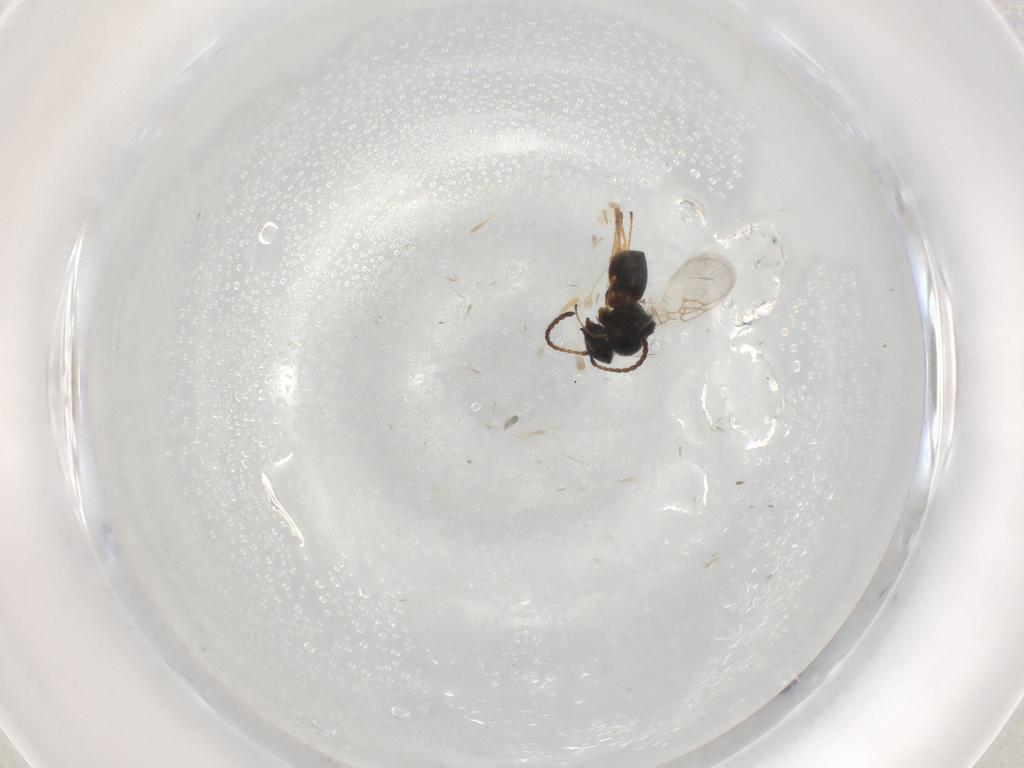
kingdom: Animalia
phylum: Arthropoda
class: Insecta
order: Hymenoptera
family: Figitidae
